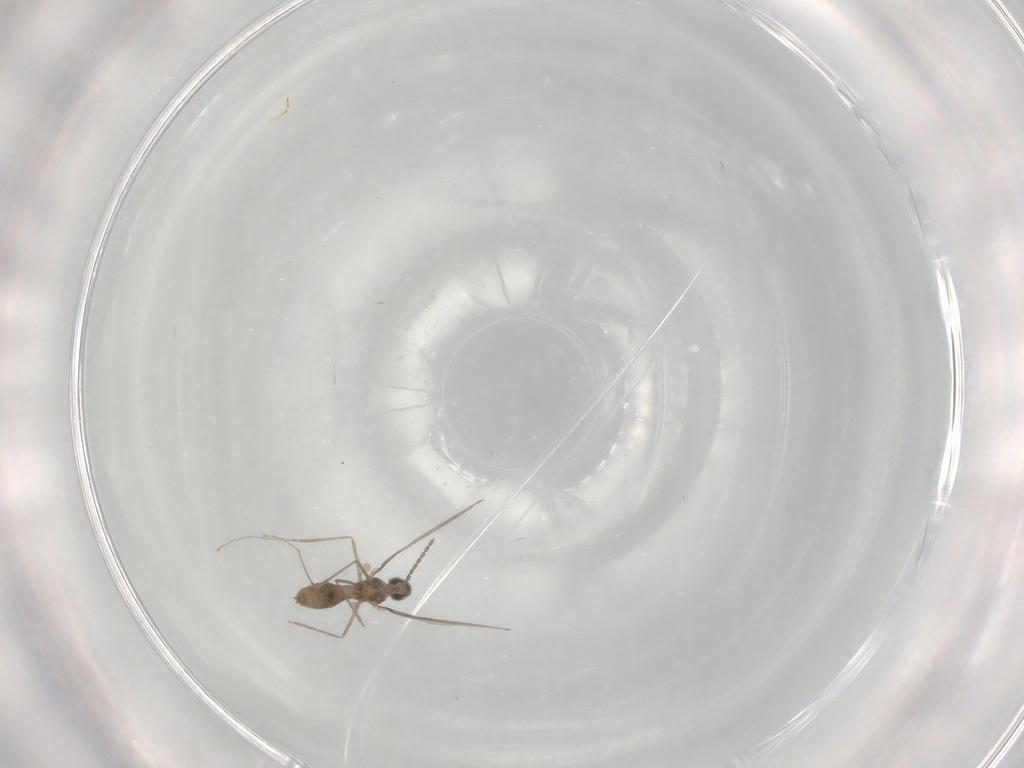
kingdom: Animalia
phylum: Arthropoda
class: Insecta
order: Diptera
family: Cecidomyiidae
